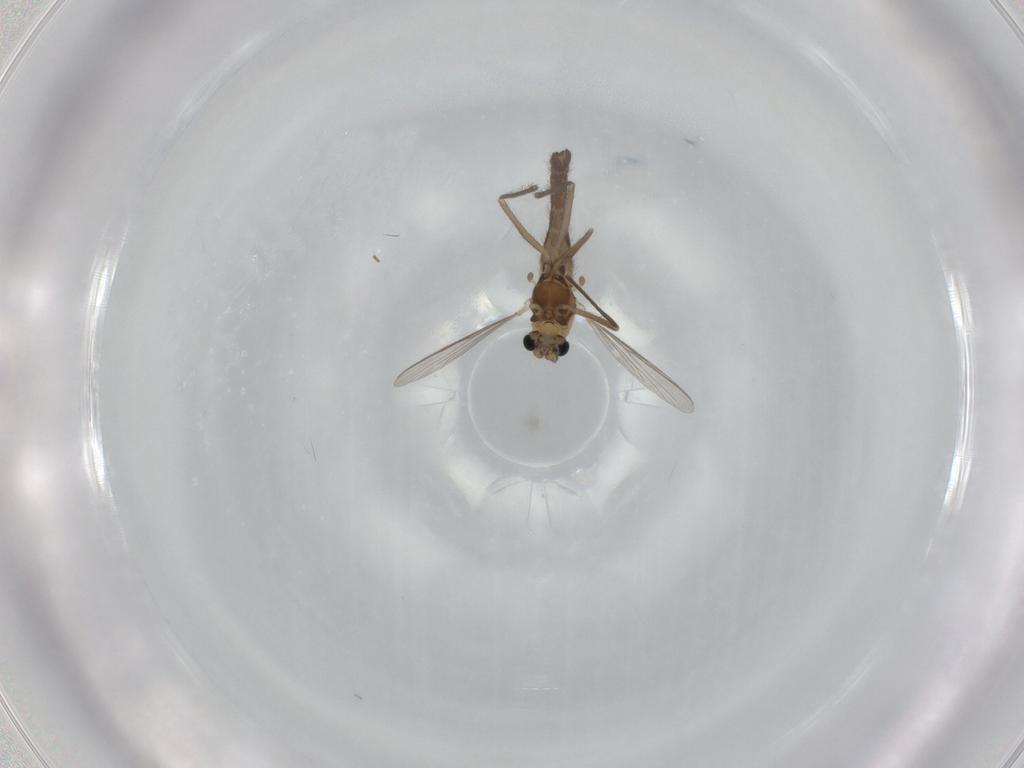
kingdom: Animalia
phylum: Arthropoda
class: Insecta
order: Diptera
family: Chironomidae
